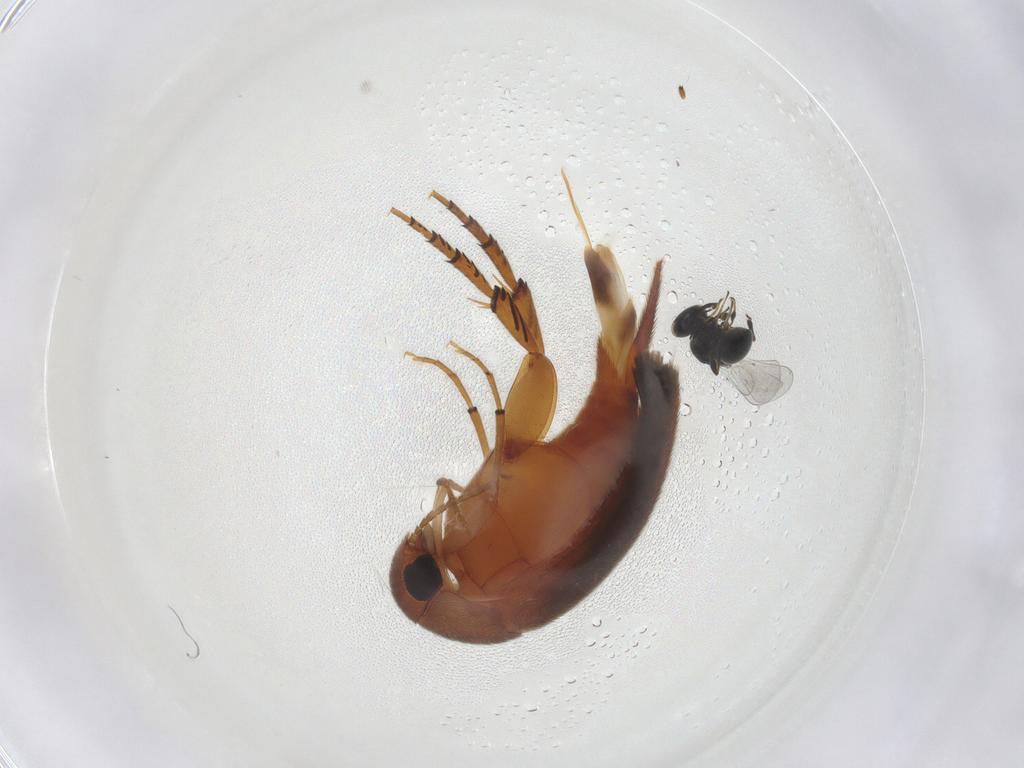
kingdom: Animalia
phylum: Arthropoda
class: Insecta
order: Coleoptera
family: Mordellidae
